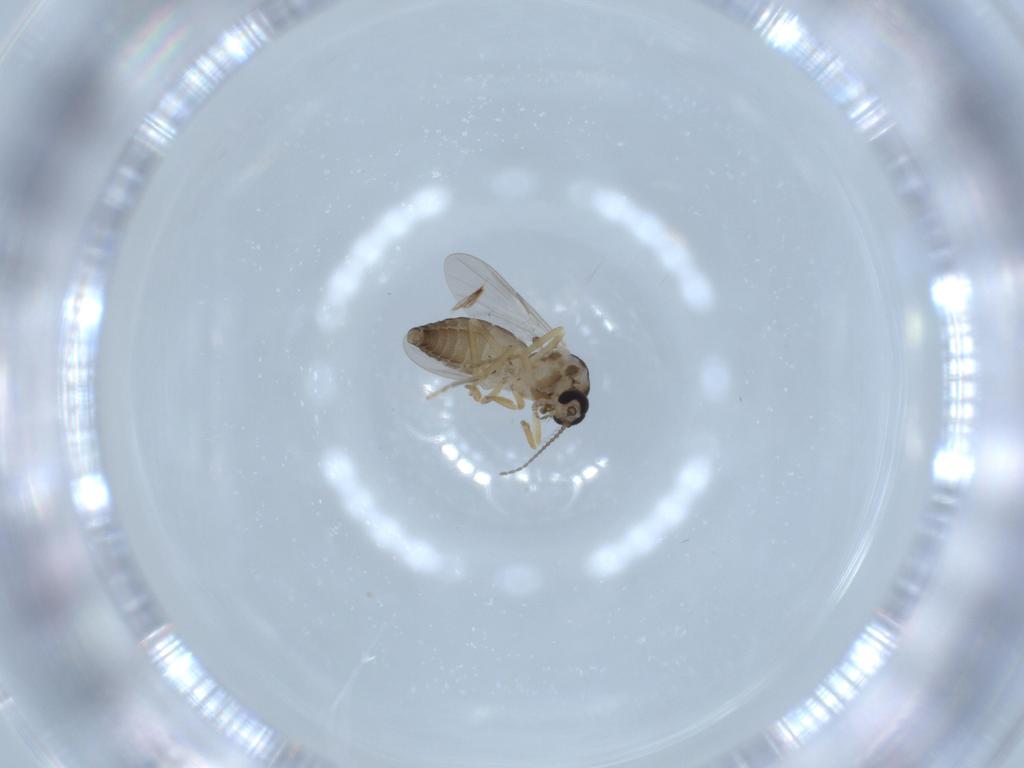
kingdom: Animalia
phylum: Arthropoda
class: Insecta
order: Diptera
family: Ceratopogonidae
